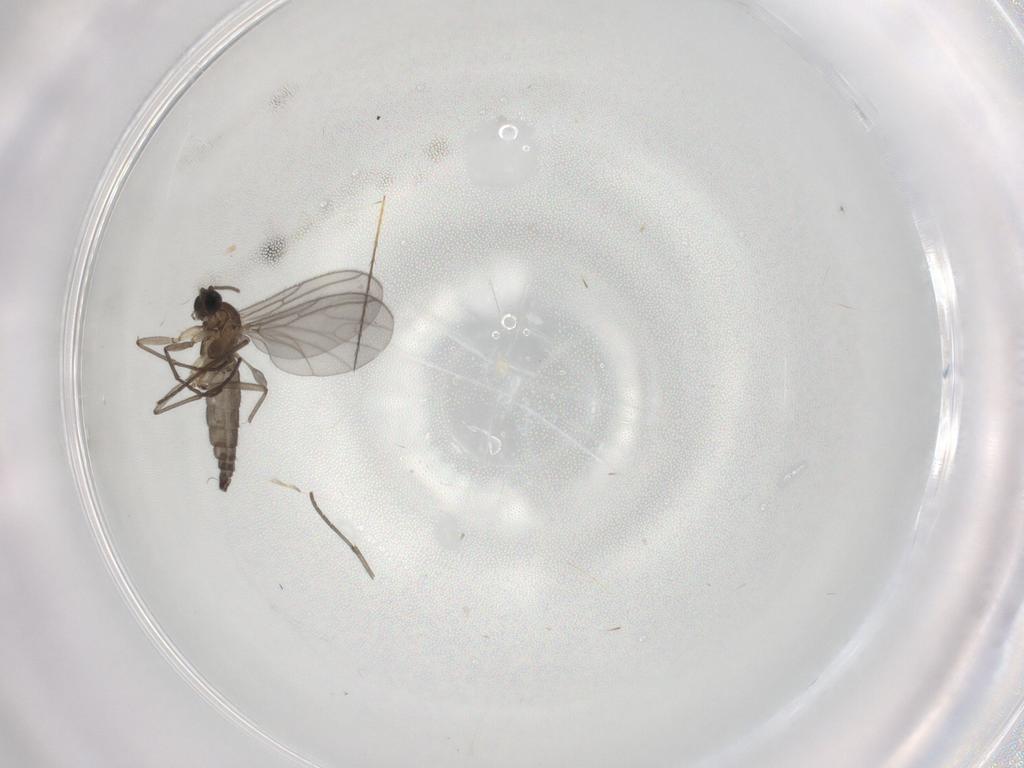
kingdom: Animalia
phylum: Arthropoda
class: Insecta
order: Diptera
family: Sciaridae
